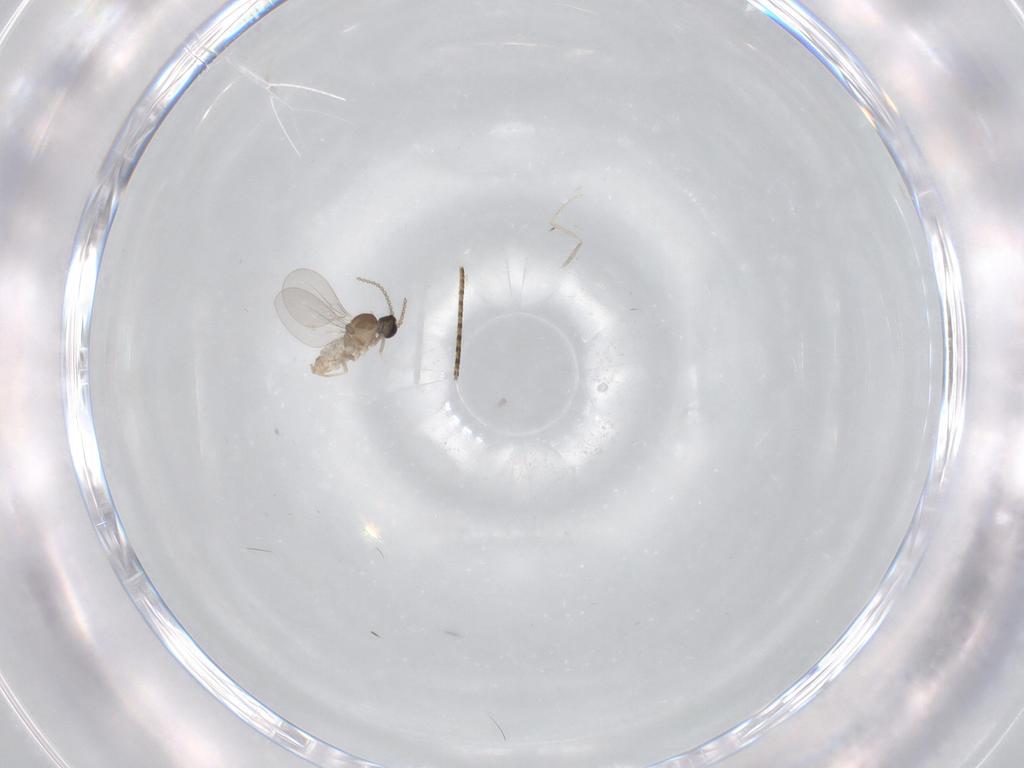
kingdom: Animalia
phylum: Arthropoda
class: Insecta
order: Diptera
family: Cecidomyiidae
